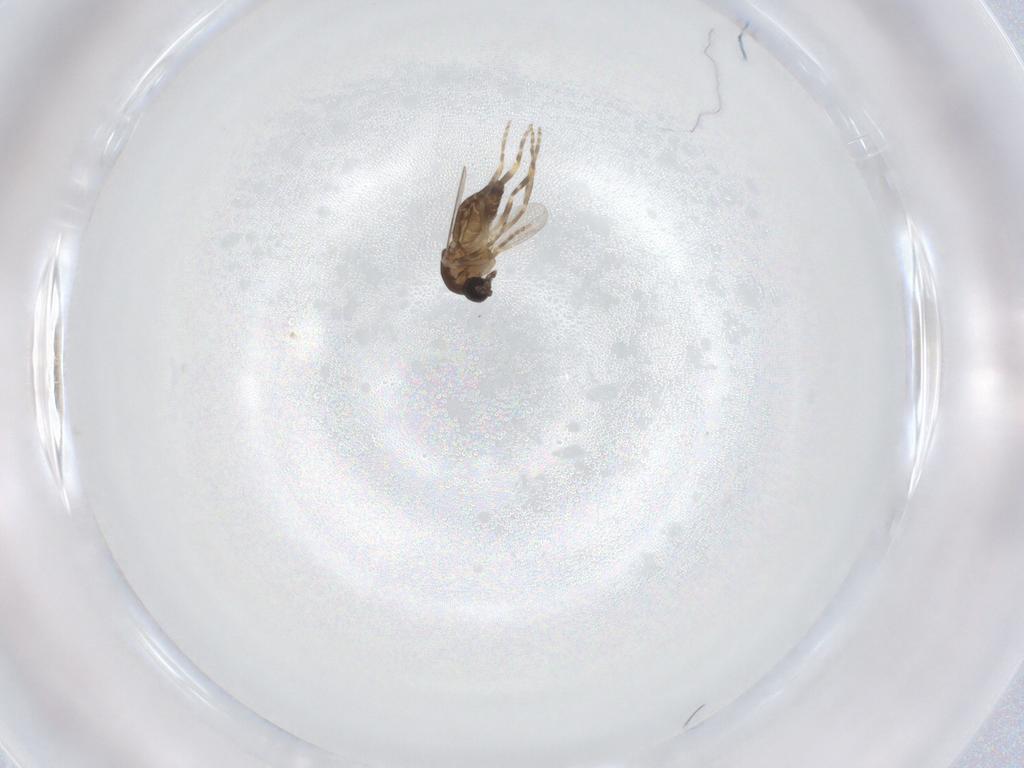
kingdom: Animalia
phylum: Arthropoda
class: Insecta
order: Diptera
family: Ceratopogonidae
